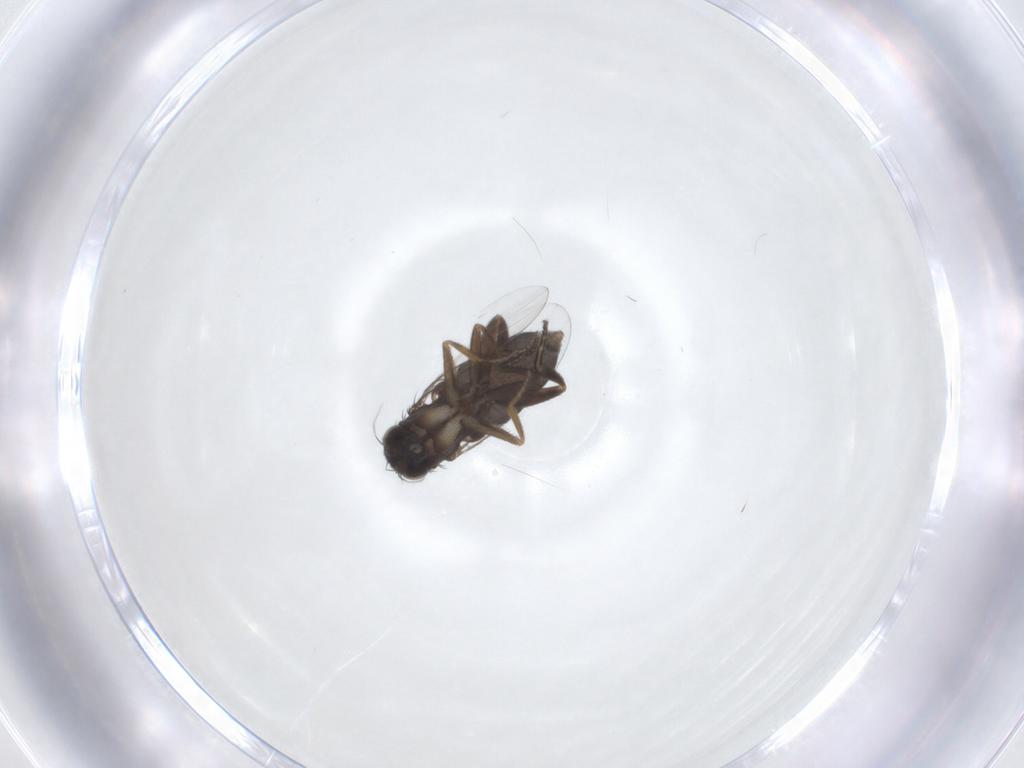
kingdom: Animalia
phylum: Arthropoda
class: Insecta
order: Diptera
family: Phoridae
